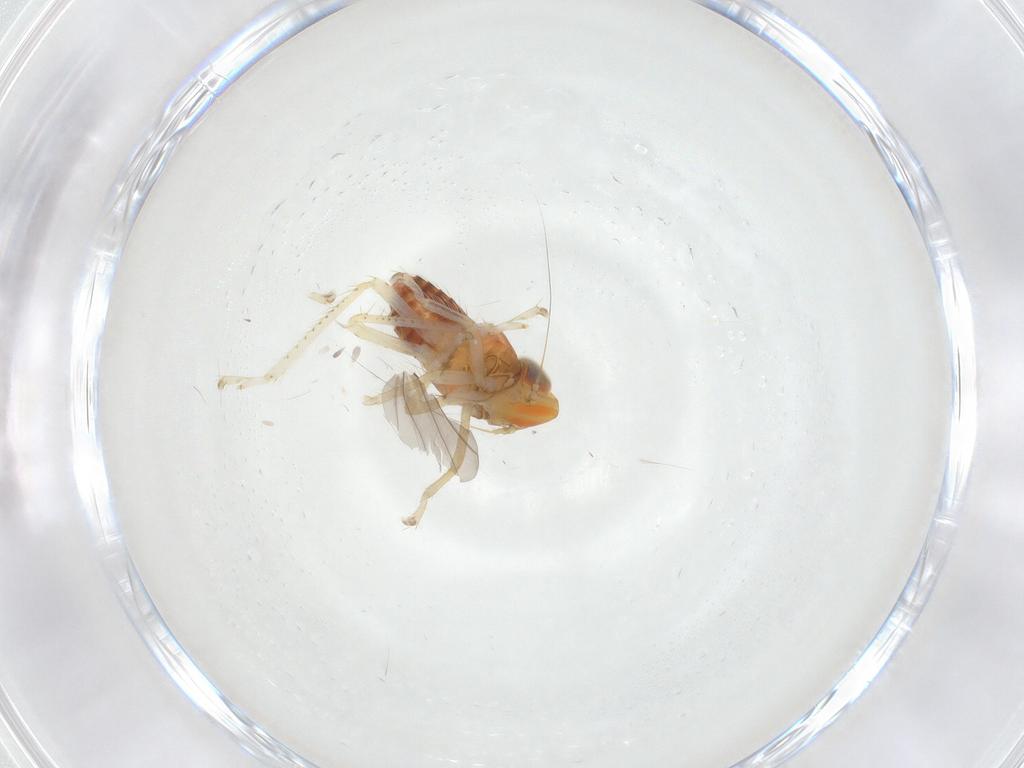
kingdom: Animalia
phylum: Arthropoda
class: Insecta
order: Hemiptera
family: Cicadellidae
